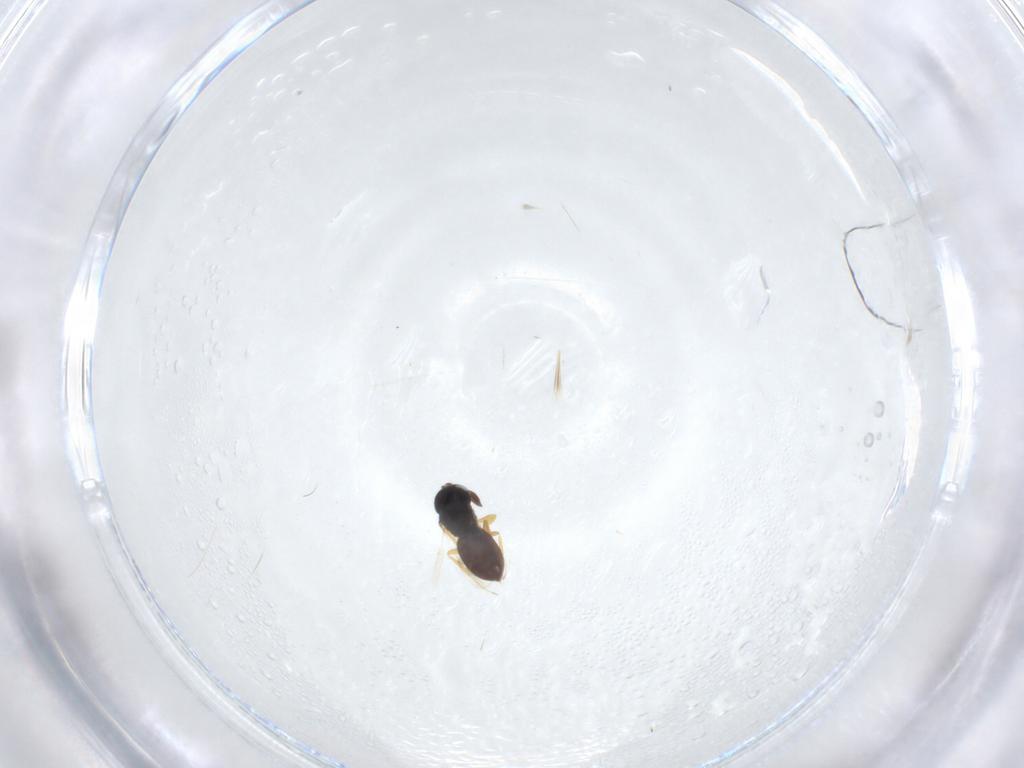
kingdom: Animalia
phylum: Arthropoda
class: Insecta
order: Hymenoptera
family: Scelionidae
